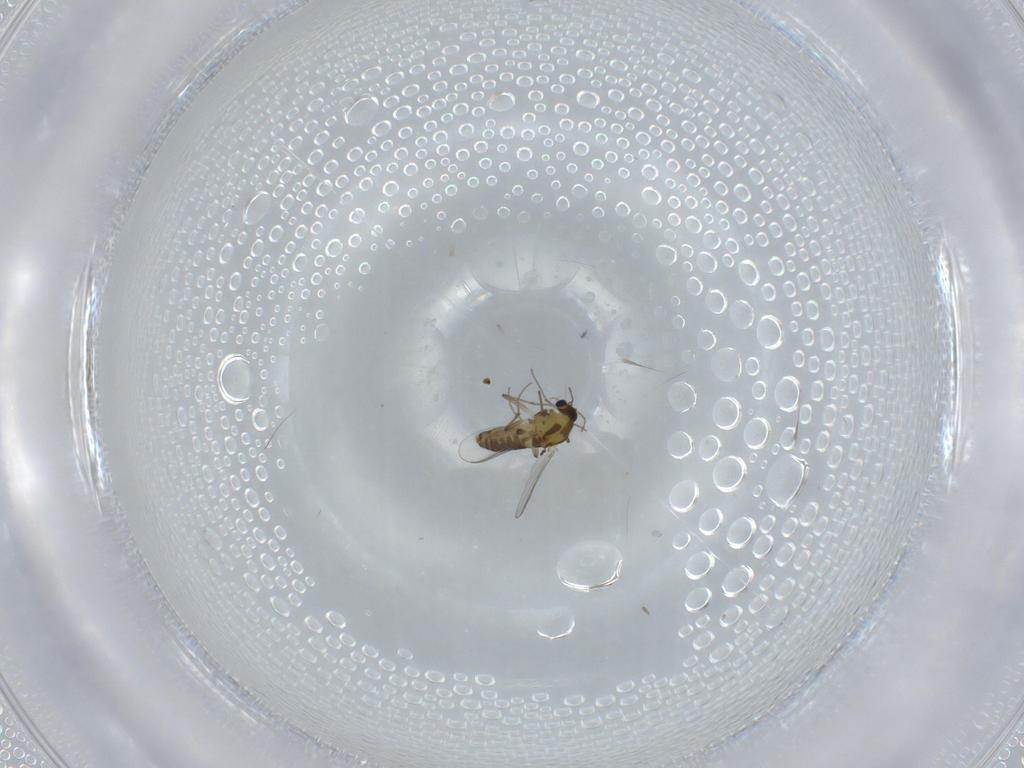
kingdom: Animalia
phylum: Arthropoda
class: Insecta
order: Diptera
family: Chironomidae
